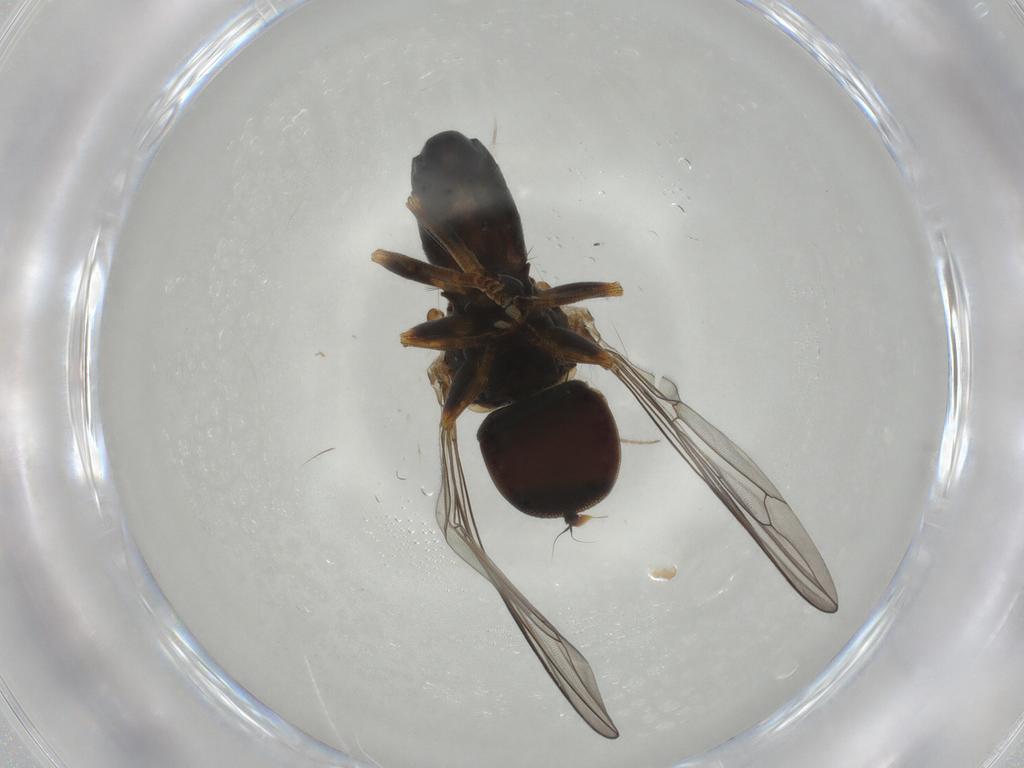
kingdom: Animalia
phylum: Arthropoda
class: Insecta
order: Diptera
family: Pipunculidae
